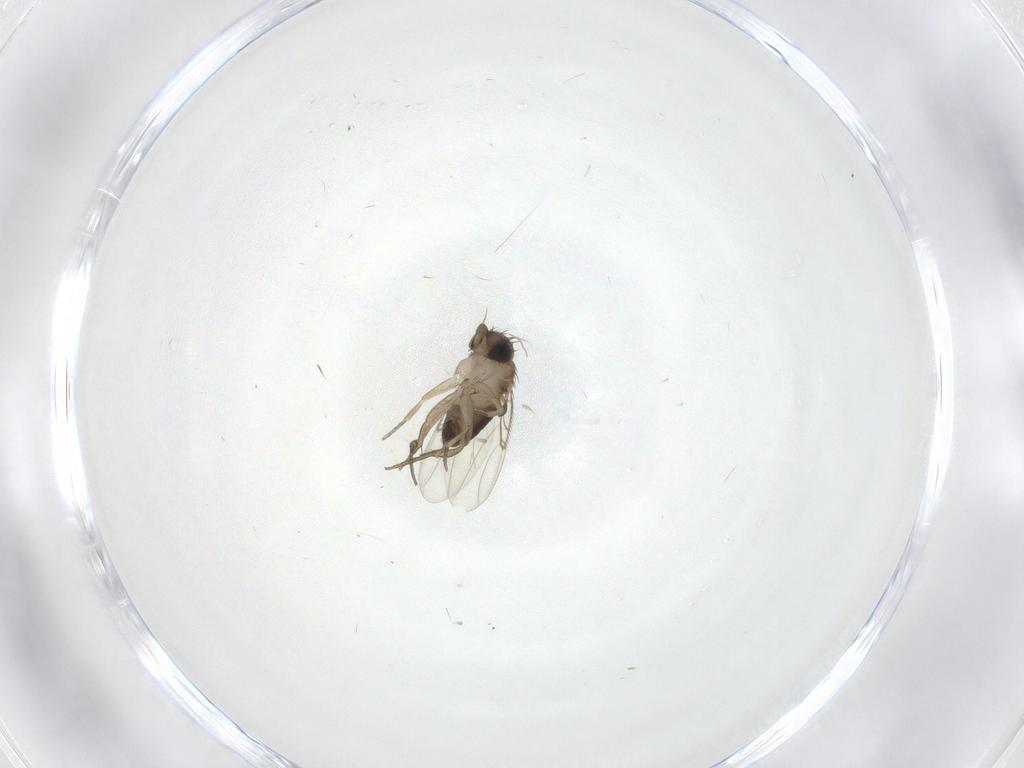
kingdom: Animalia
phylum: Arthropoda
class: Insecta
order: Diptera
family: Phoridae
